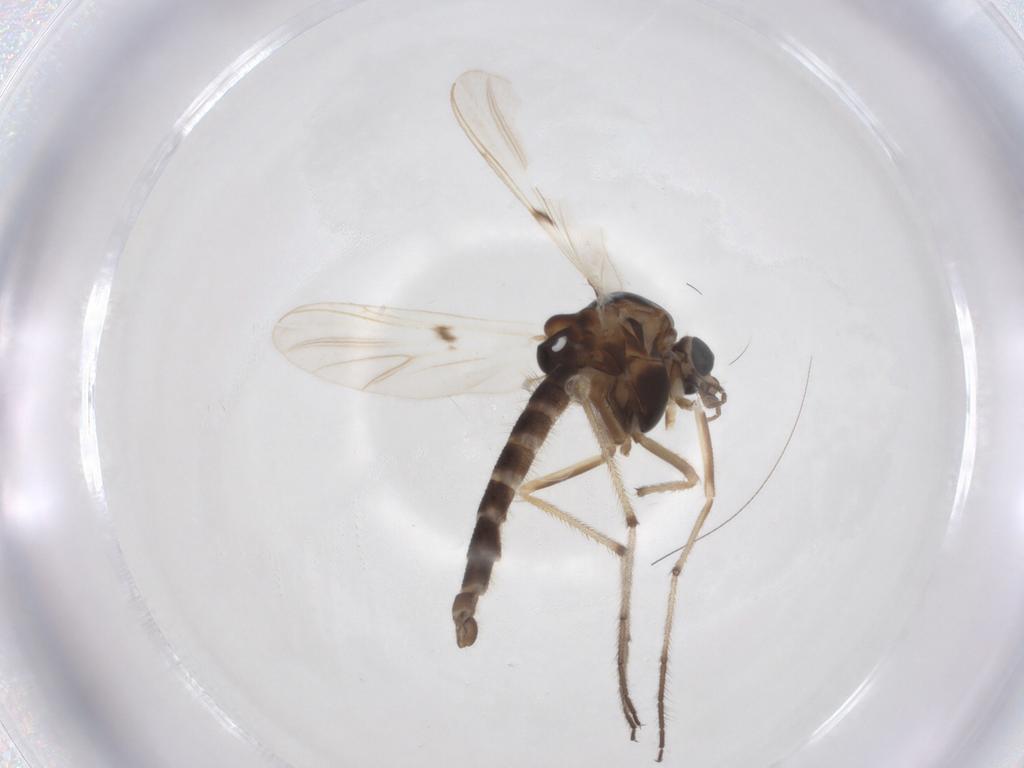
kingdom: Animalia
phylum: Arthropoda
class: Insecta
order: Diptera
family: Chironomidae
